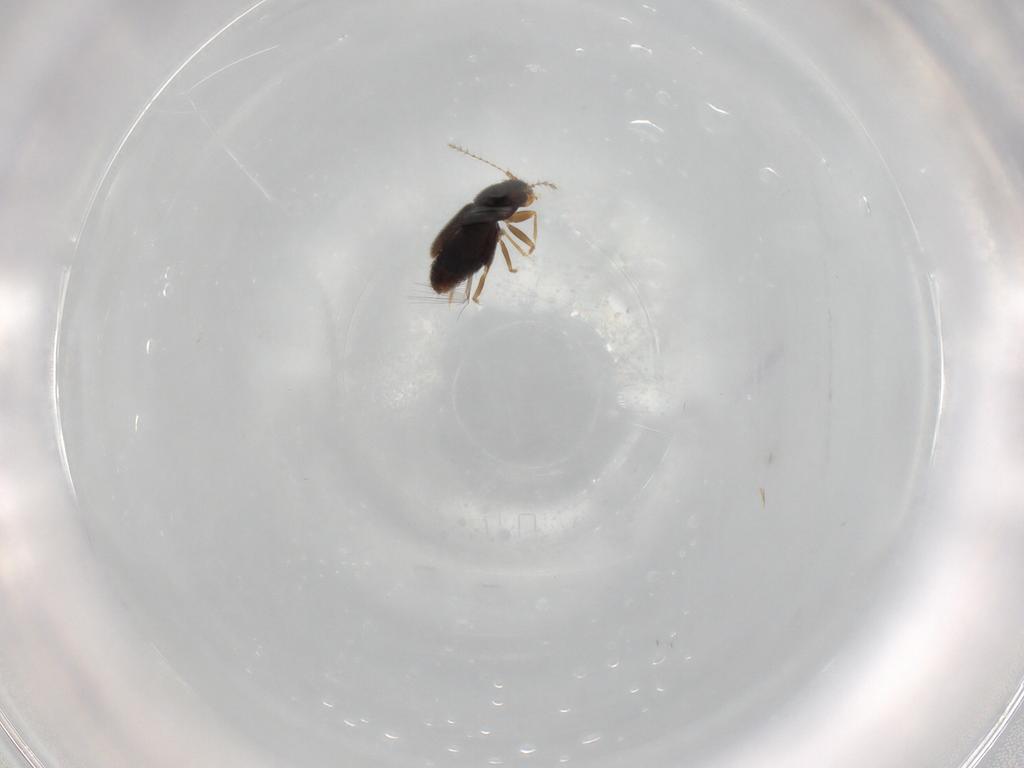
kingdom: Animalia
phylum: Arthropoda
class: Insecta
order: Coleoptera
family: Ptiliidae
